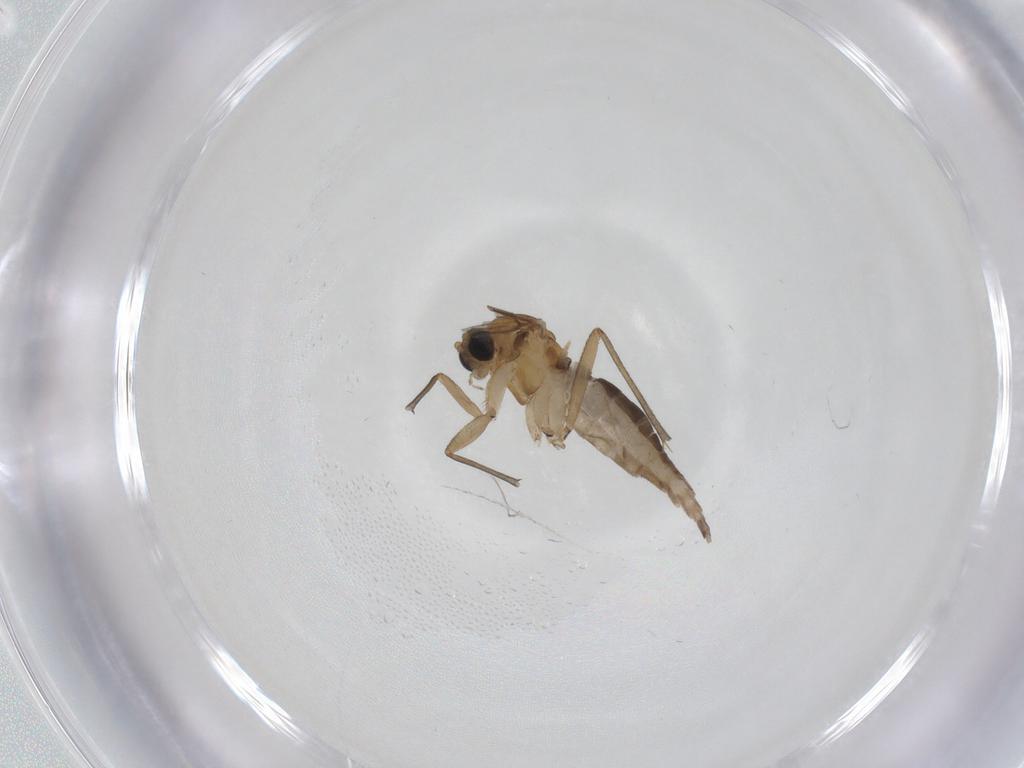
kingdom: Animalia
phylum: Arthropoda
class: Insecta
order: Diptera
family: Sciaridae
